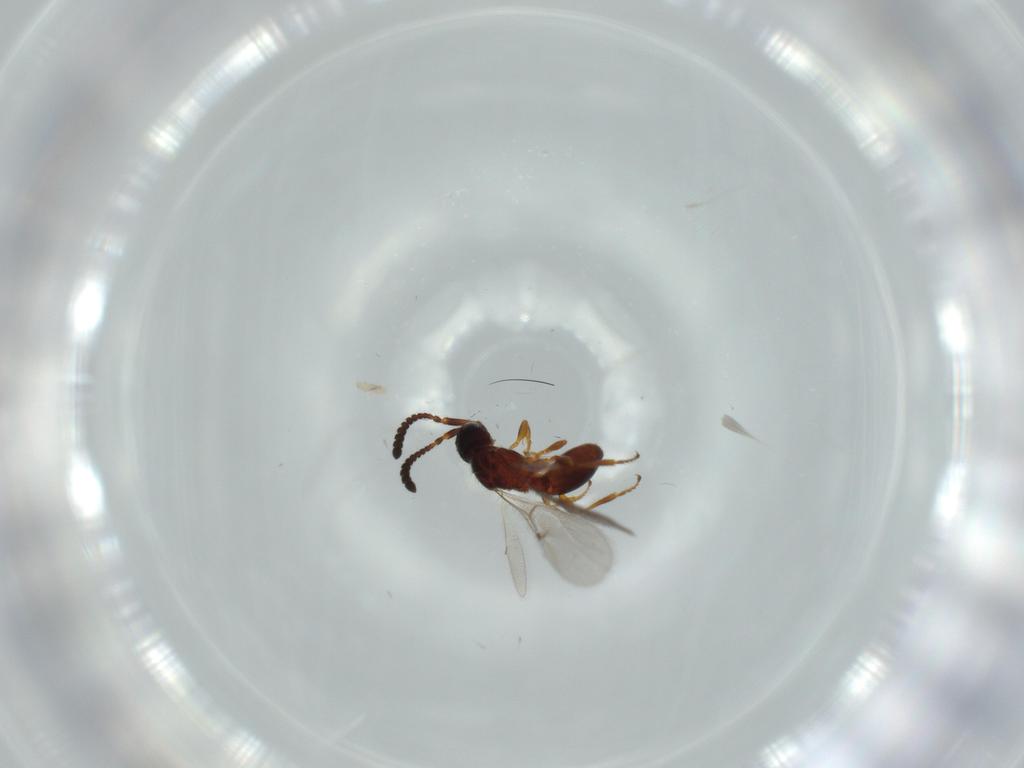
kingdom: Animalia
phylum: Arthropoda
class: Insecta
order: Hymenoptera
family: Diapriidae
